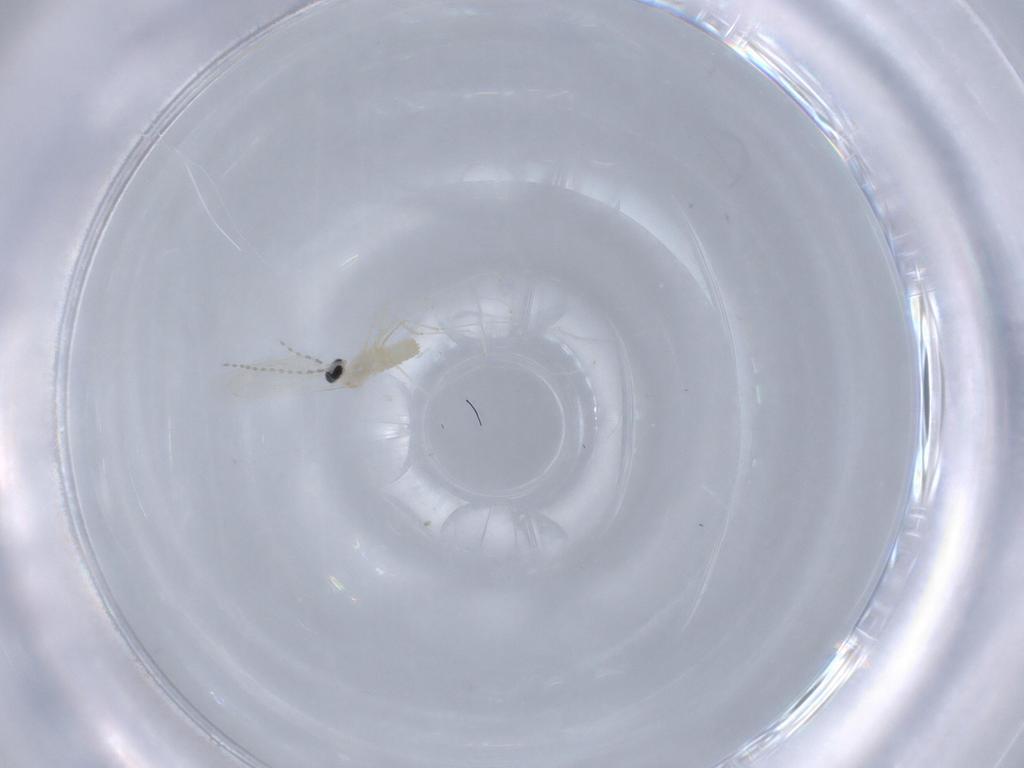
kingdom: Animalia
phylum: Arthropoda
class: Insecta
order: Diptera
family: Cecidomyiidae
